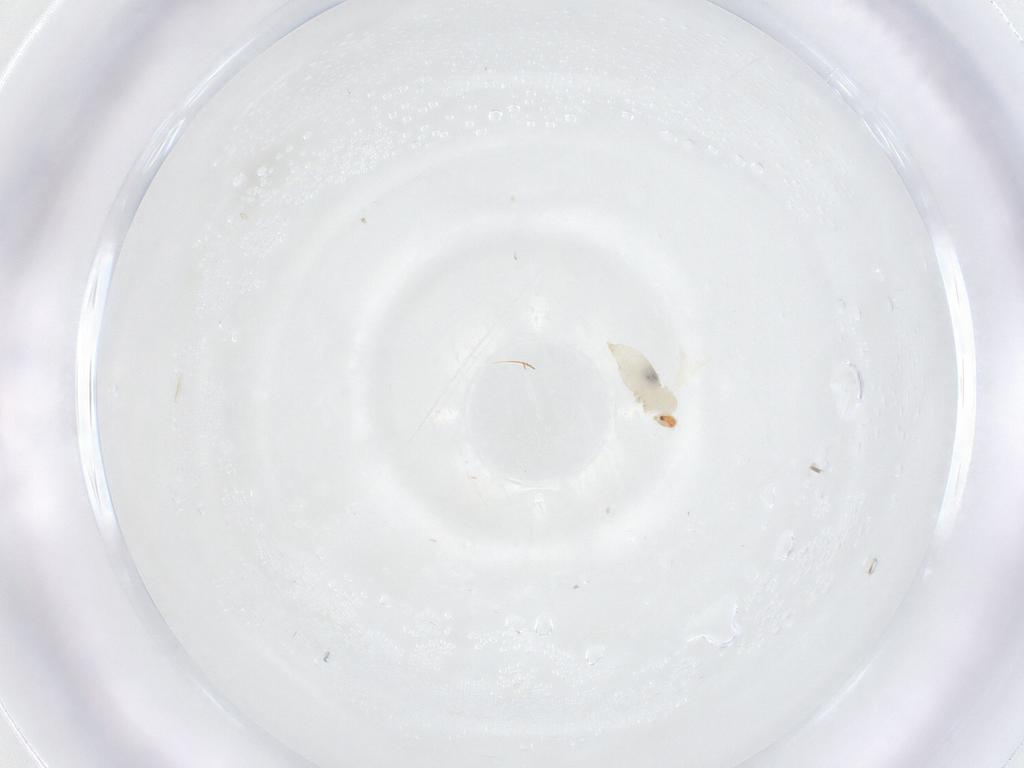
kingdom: Animalia
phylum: Arthropoda
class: Insecta
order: Diptera
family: Cecidomyiidae
